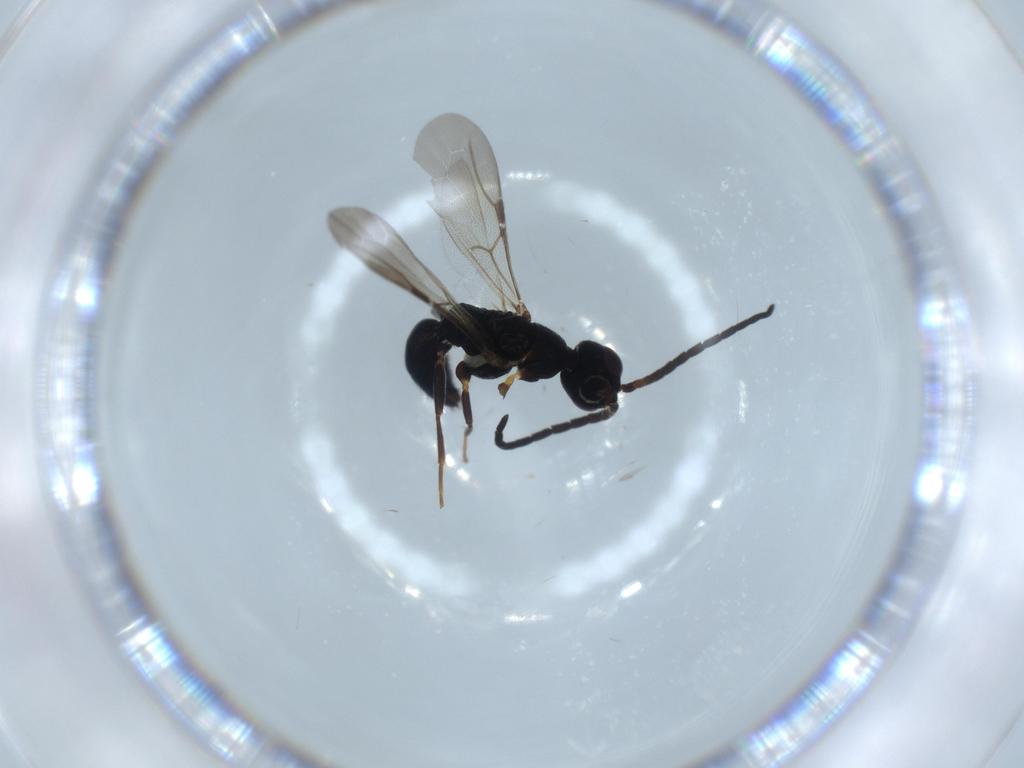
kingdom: Animalia
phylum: Arthropoda
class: Insecta
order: Hymenoptera
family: Bethylidae
